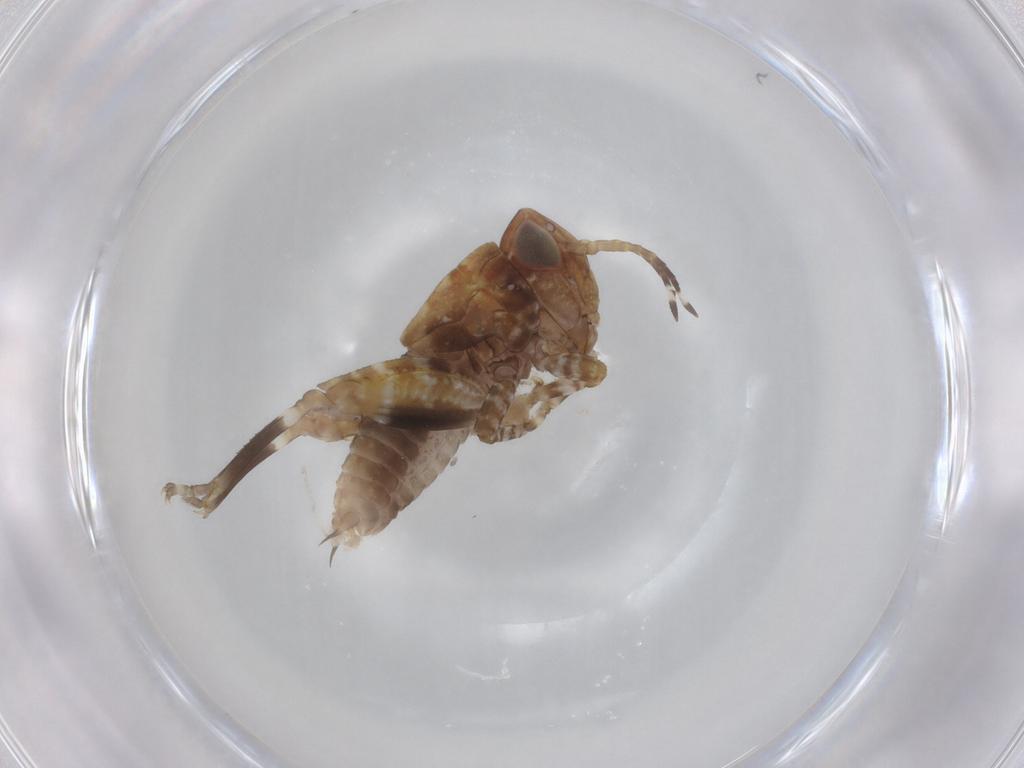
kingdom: Animalia
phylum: Arthropoda
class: Insecta
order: Orthoptera
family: Tetrigidae
